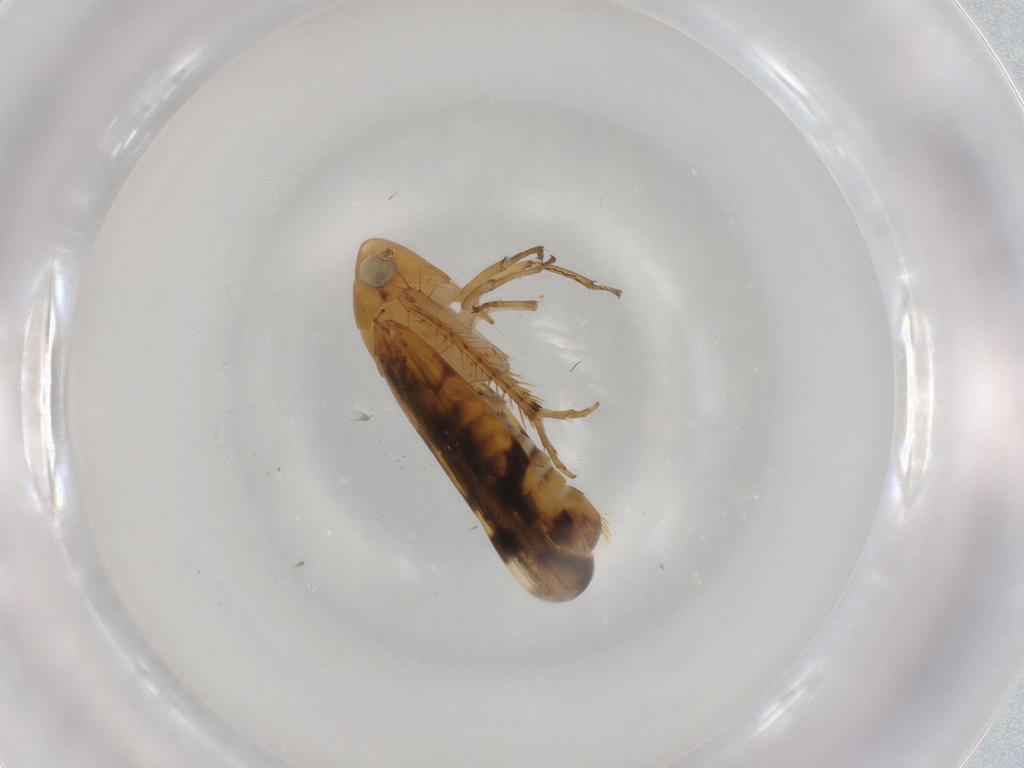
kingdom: Animalia
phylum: Arthropoda
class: Insecta
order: Hemiptera
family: Cicadellidae
